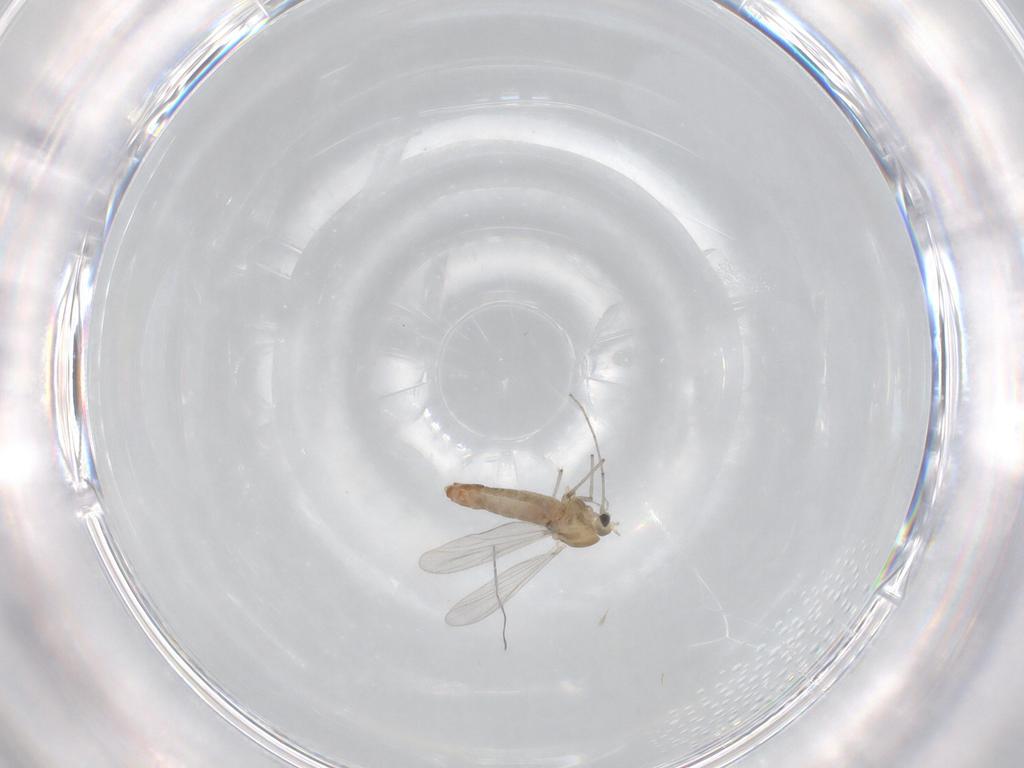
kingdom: Animalia
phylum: Arthropoda
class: Insecta
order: Diptera
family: Chironomidae
